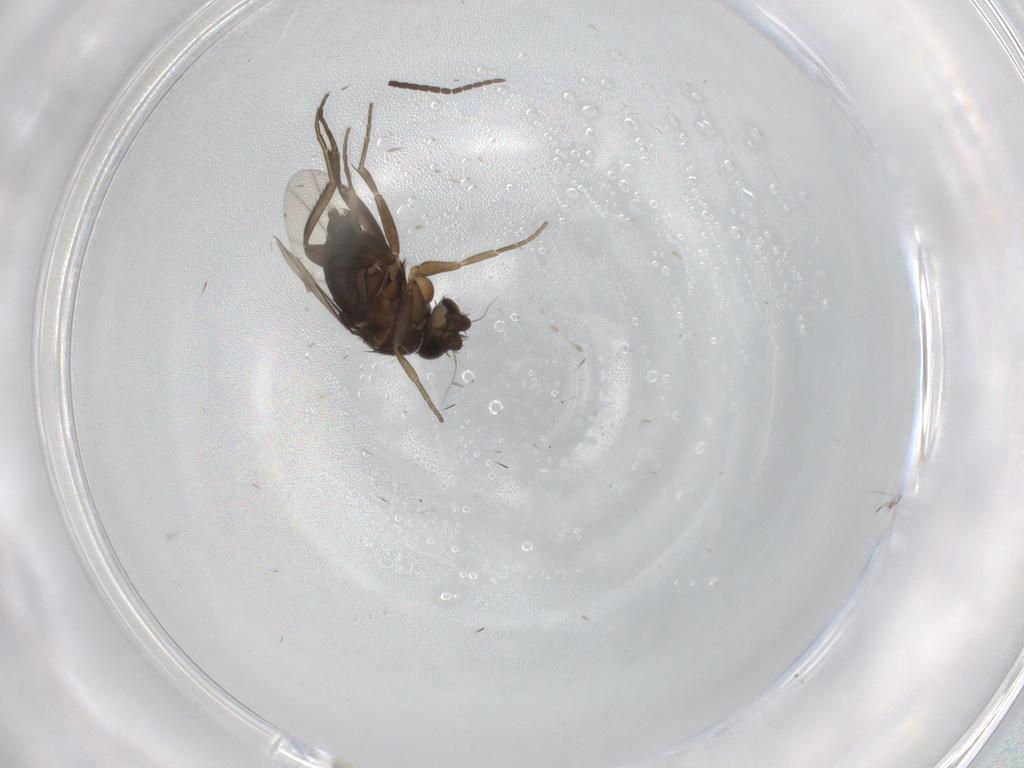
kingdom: Animalia
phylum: Arthropoda
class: Insecta
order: Diptera
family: Phoridae
